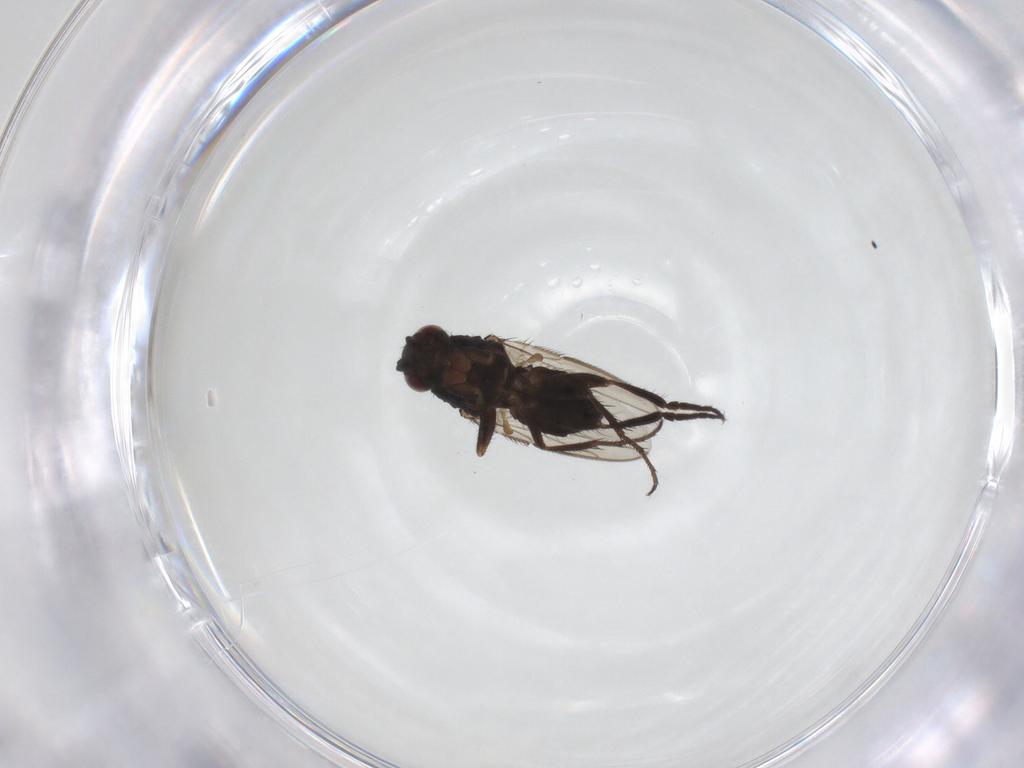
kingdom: Animalia
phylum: Arthropoda
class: Insecta
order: Diptera
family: Sphaeroceridae
